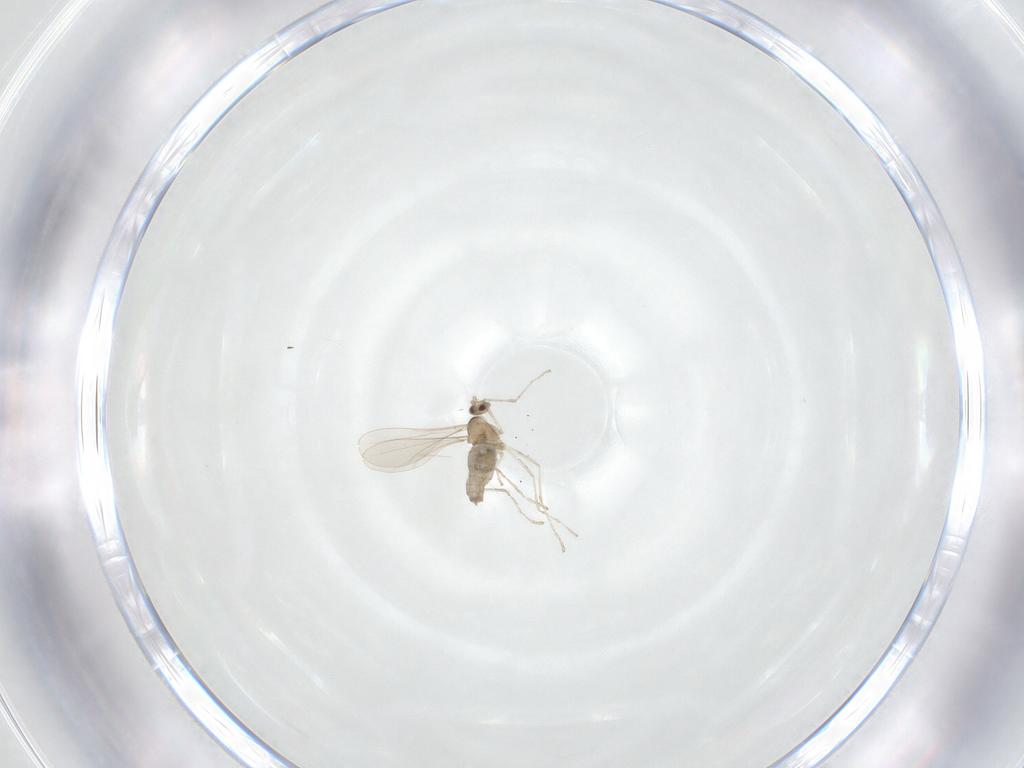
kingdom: Animalia
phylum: Arthropoda
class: Insecta
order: Diptera
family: Cecidomyiidae
